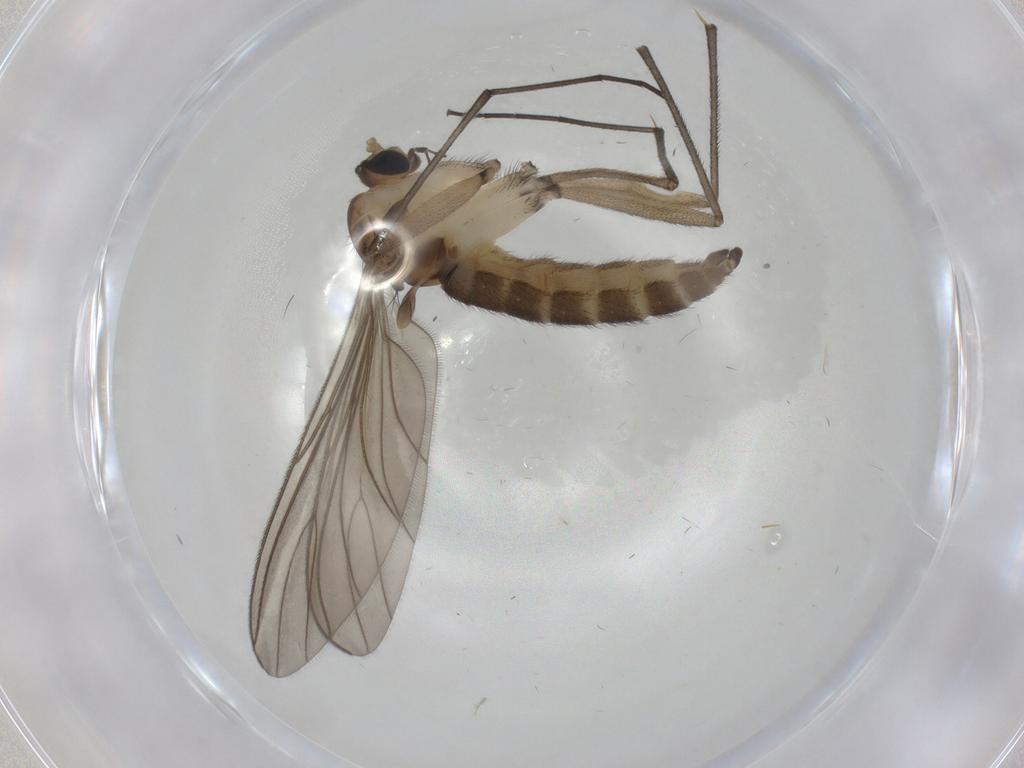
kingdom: Animalia
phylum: Arthropoda
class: Insecta
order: Diptera
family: Sciaridae
